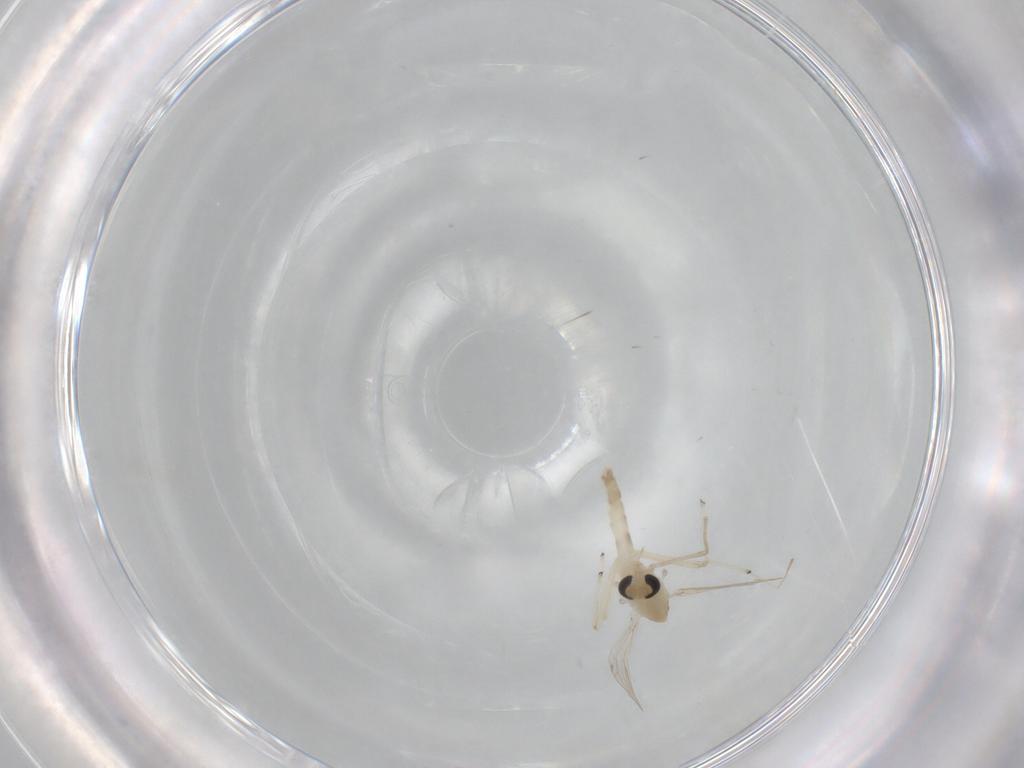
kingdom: Animalia
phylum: Arthropoda
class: Insecta
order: Diptera
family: Chironomidae
